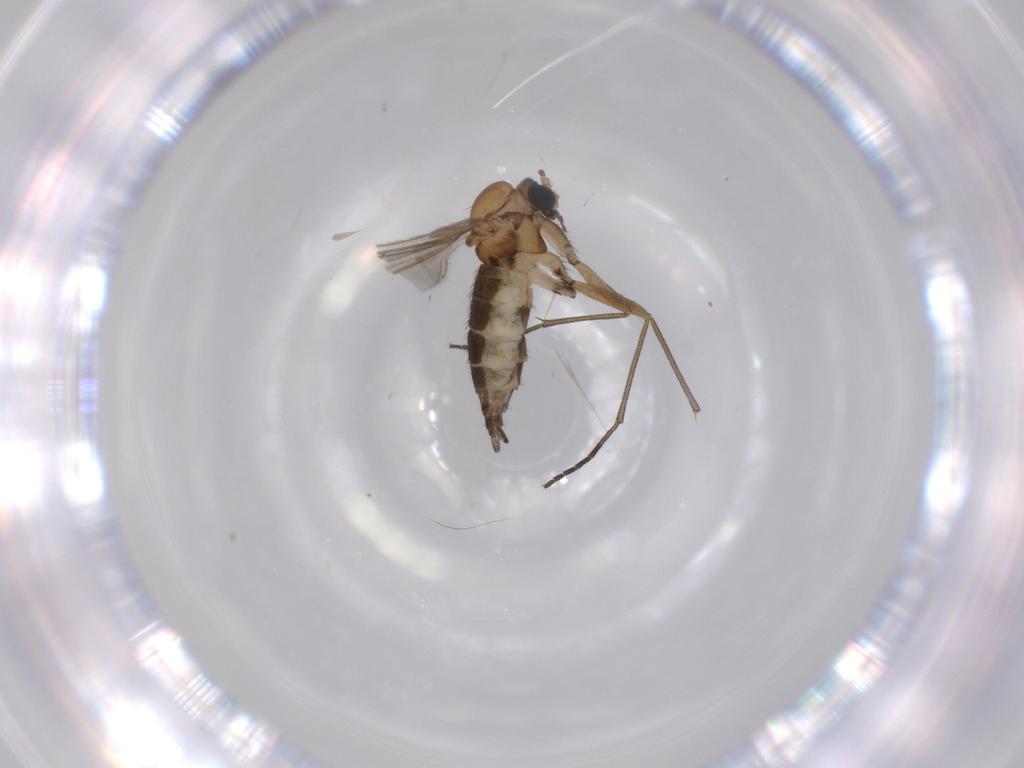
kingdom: Animalia
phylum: Arthropoda
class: Insecta
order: Diptera
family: Sciaridae
